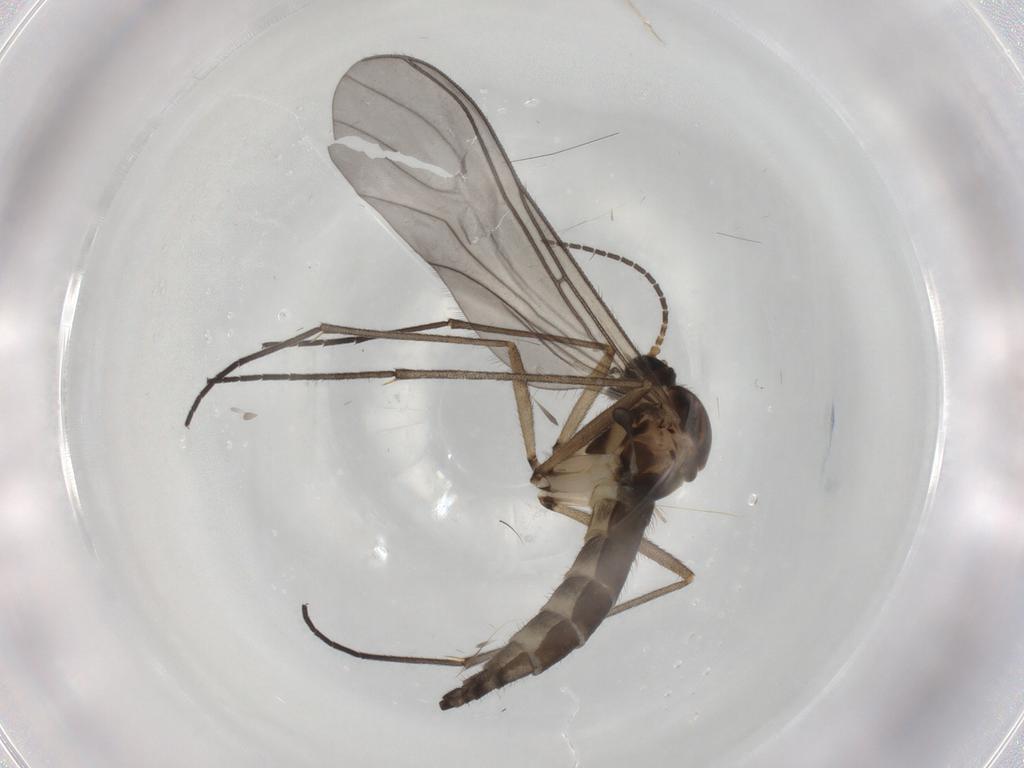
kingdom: Animalia
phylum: Arthropoda
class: Insecta
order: Diptera
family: Sciaridae
